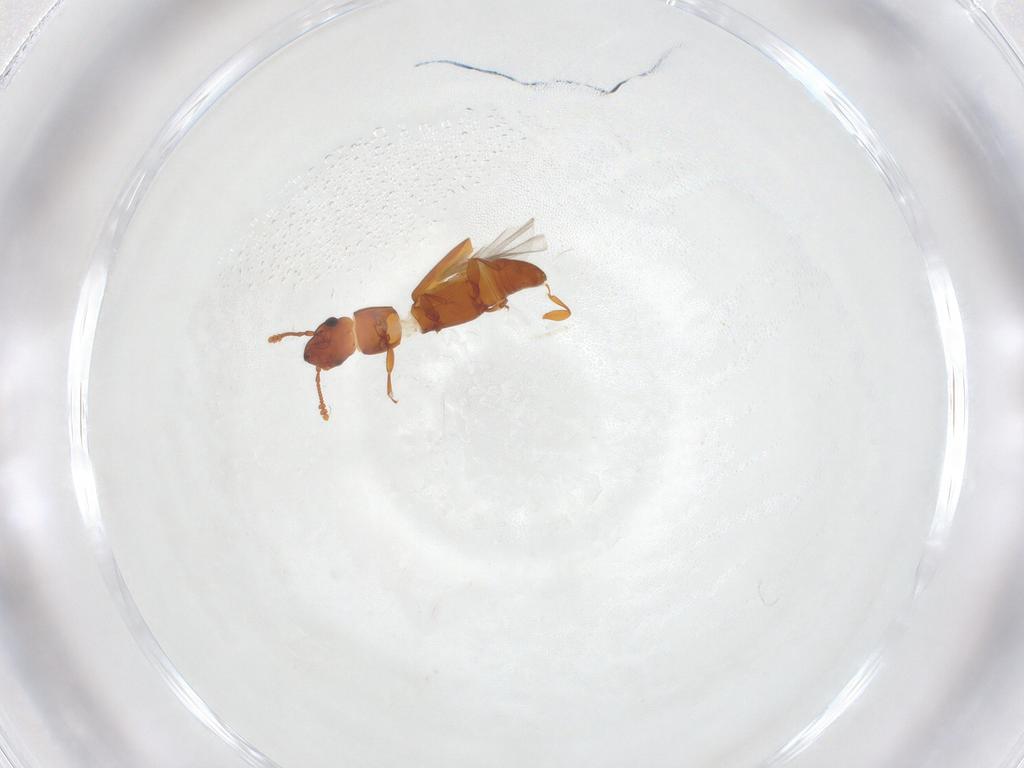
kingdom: Animalia
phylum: Arthropoda
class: Insecta
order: Coleoptera
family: Smicripidae
